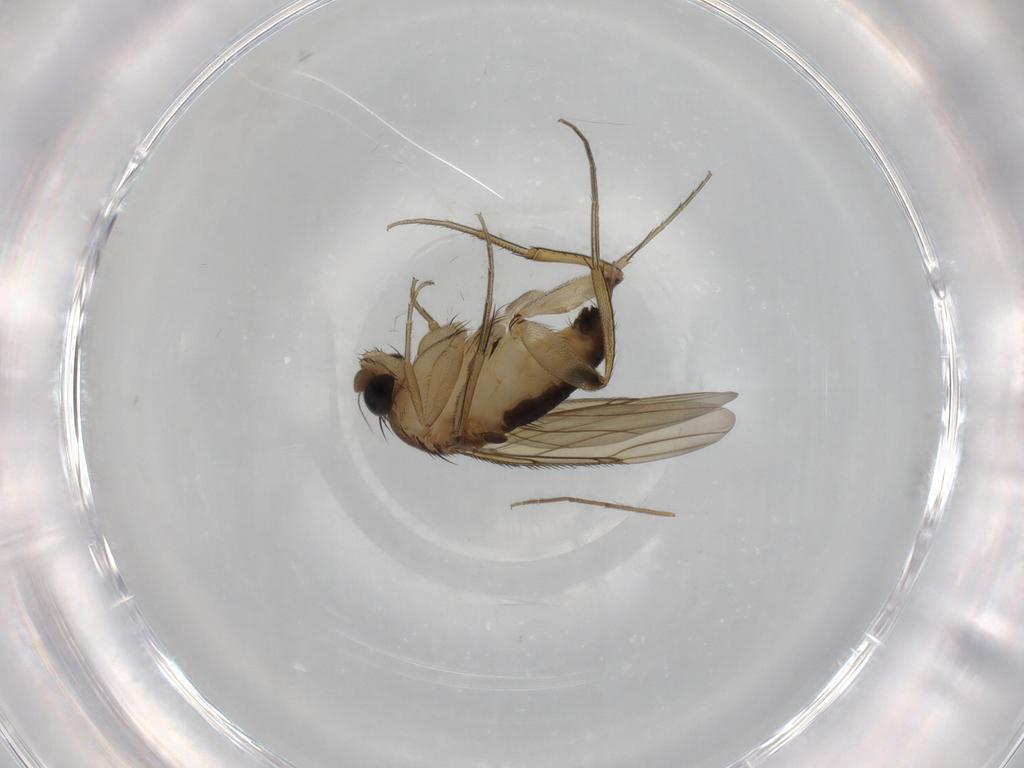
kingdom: Animalia
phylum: Arthropoda
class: Insecta
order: Diptera
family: Phoridae
